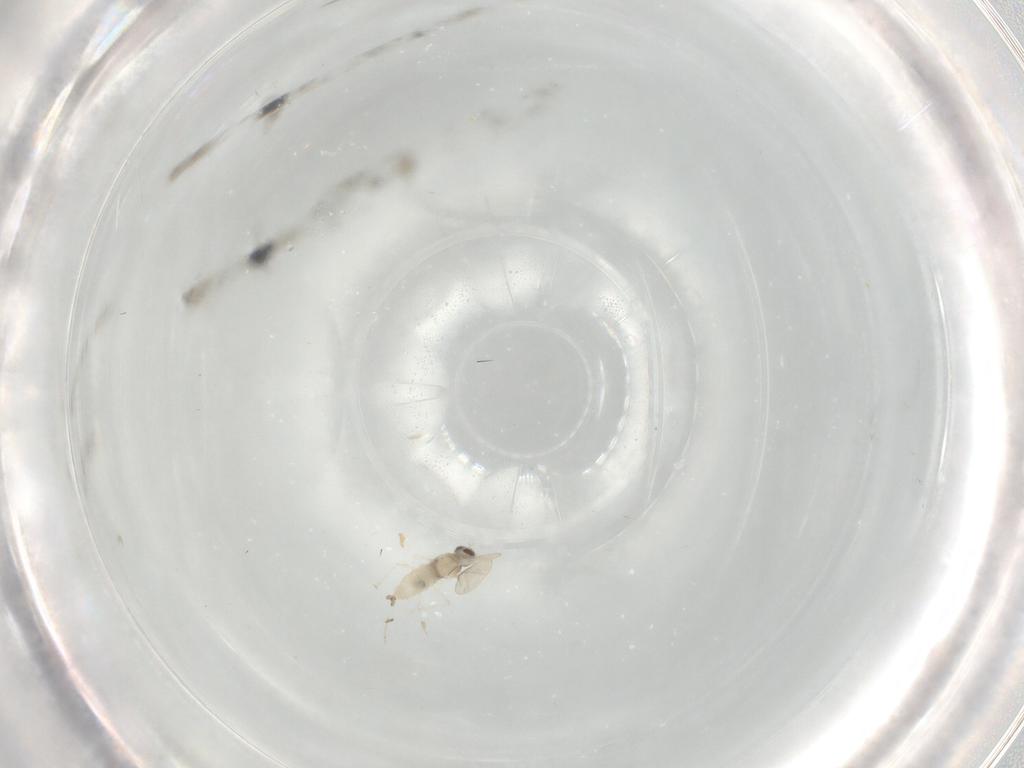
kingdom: Animalia
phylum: Arthropoda
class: Insecta
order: Diptera
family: Cecidomyiidae
